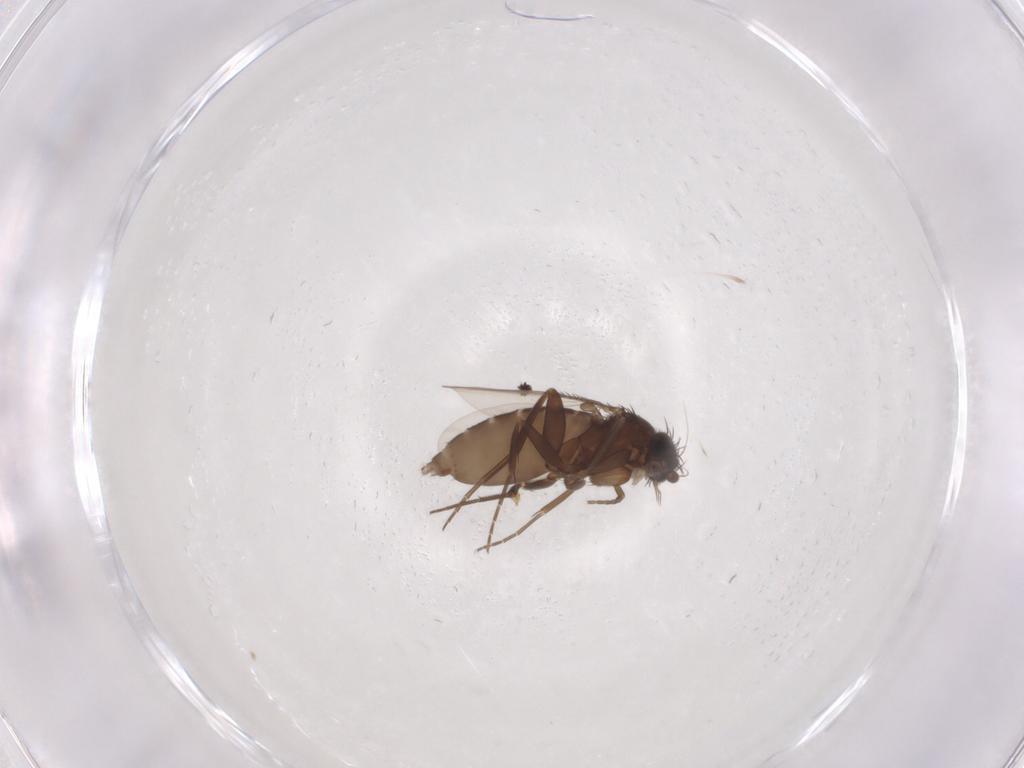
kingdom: Animalia
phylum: Arthropoda
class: Insecta
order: Diptera
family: Phoridae
